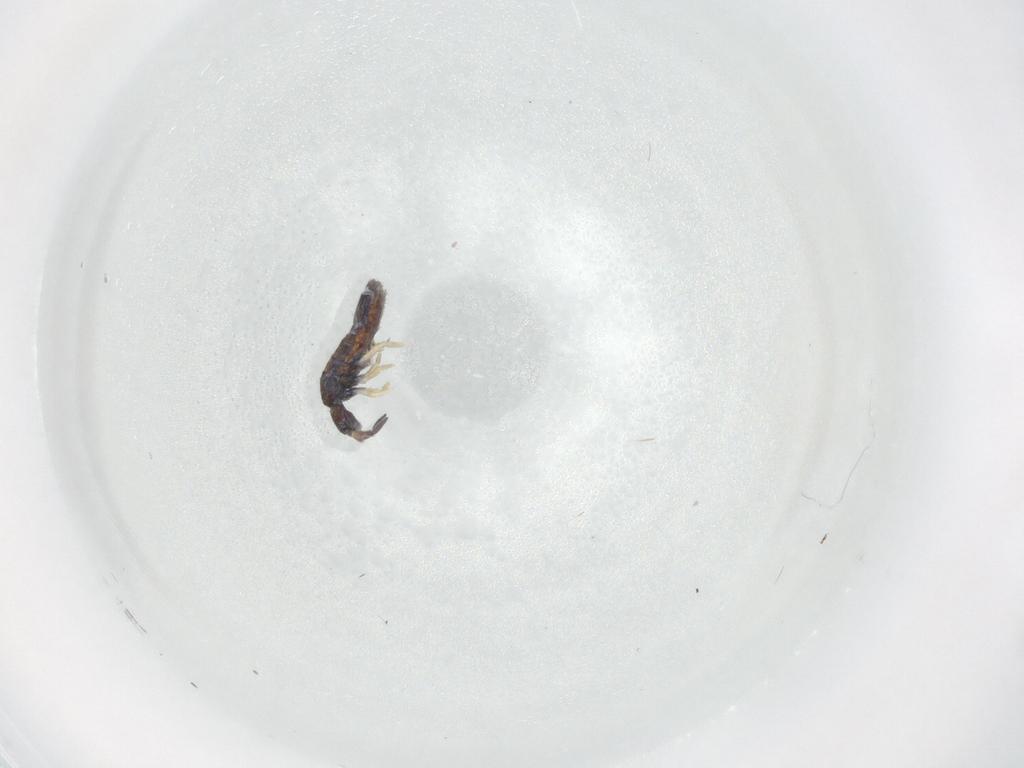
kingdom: Animalia
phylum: Arthropoda
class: Collembola
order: Entomobryomorpha
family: Entomobryidae
